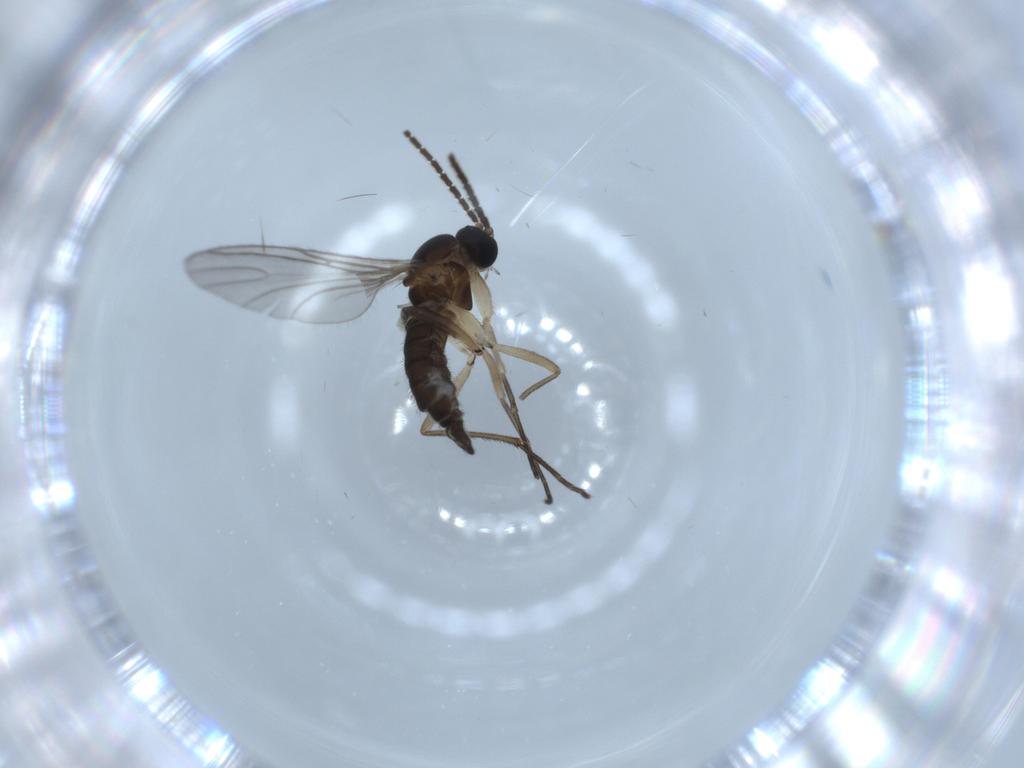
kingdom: Animalia
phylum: Arthropoda
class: Insecta
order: Diptera
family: Sciaridae
